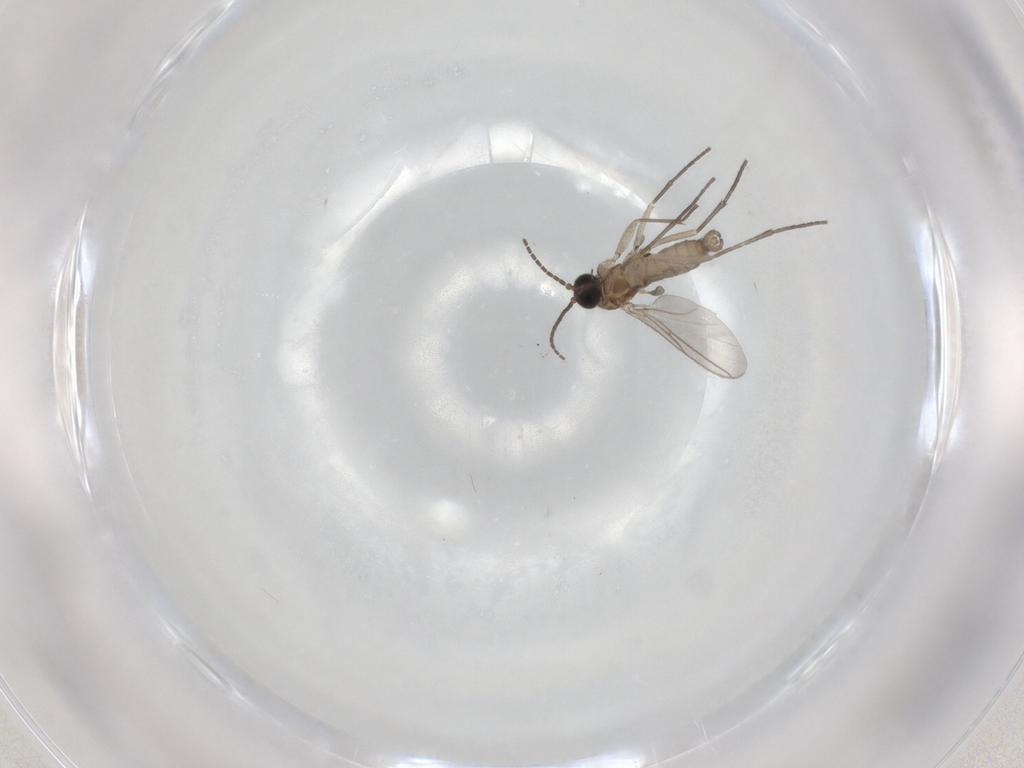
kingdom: Animalia
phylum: Arthropoda
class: Insecta
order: Diptera
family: Sciaridae
